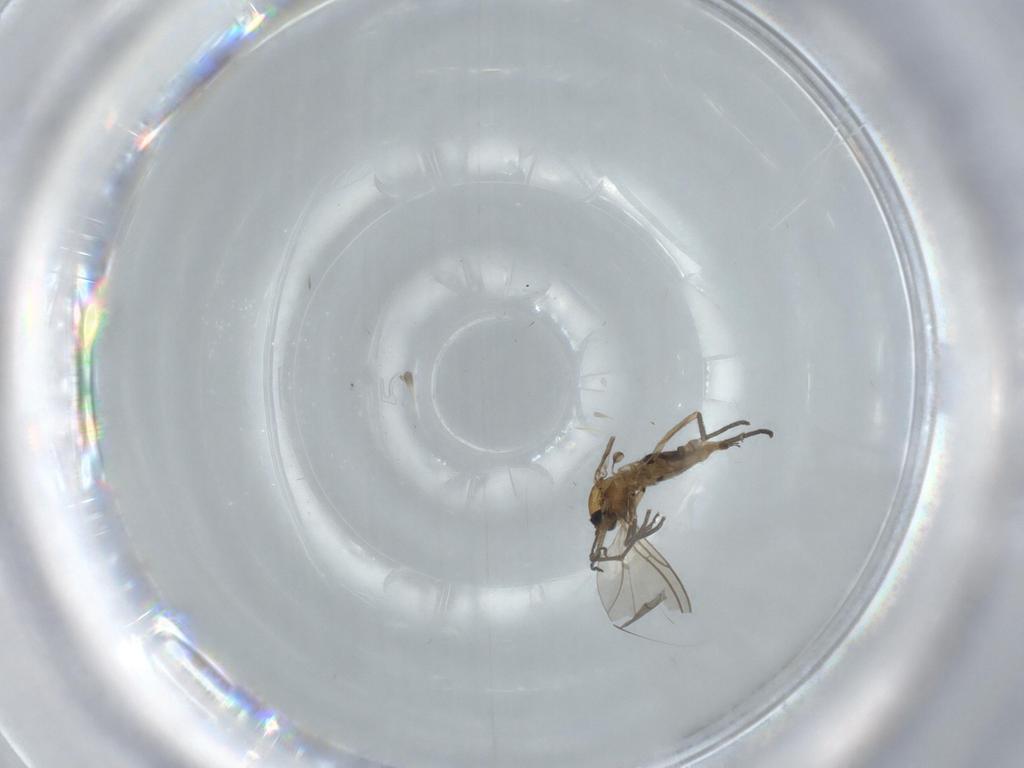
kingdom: Animalia
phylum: Arthropoda
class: Insecta
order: Diptera
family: Sciaridae
